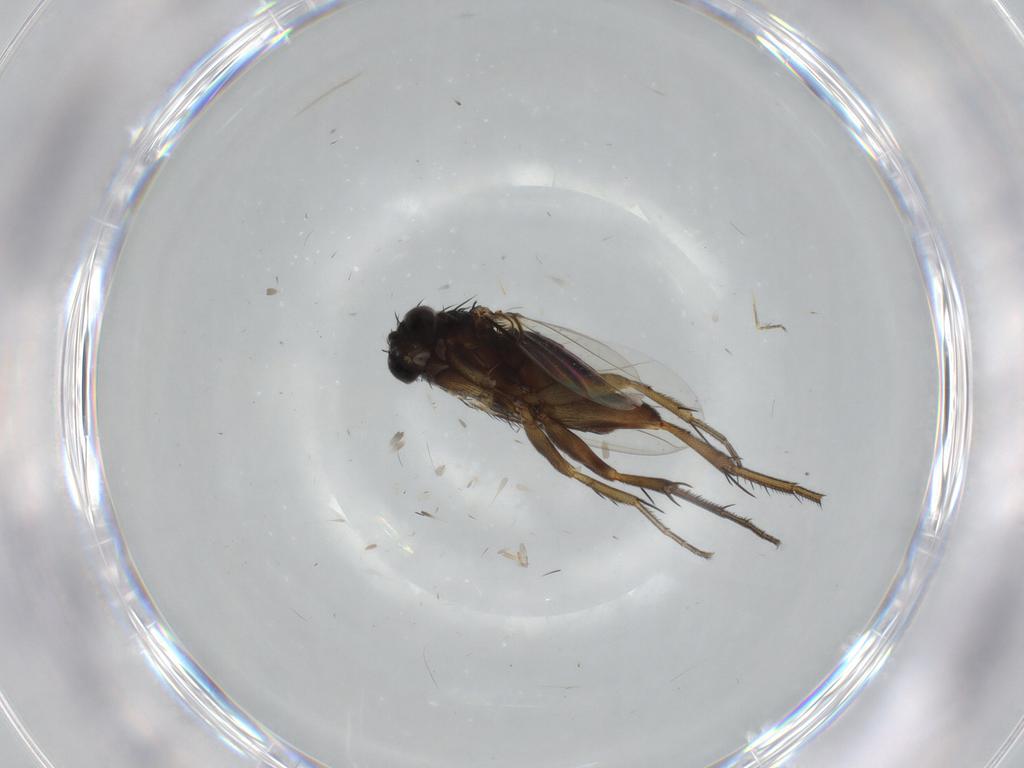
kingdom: Animalia
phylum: Arthropoda
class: Insecta
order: Diptera
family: Cecidomyiidae
